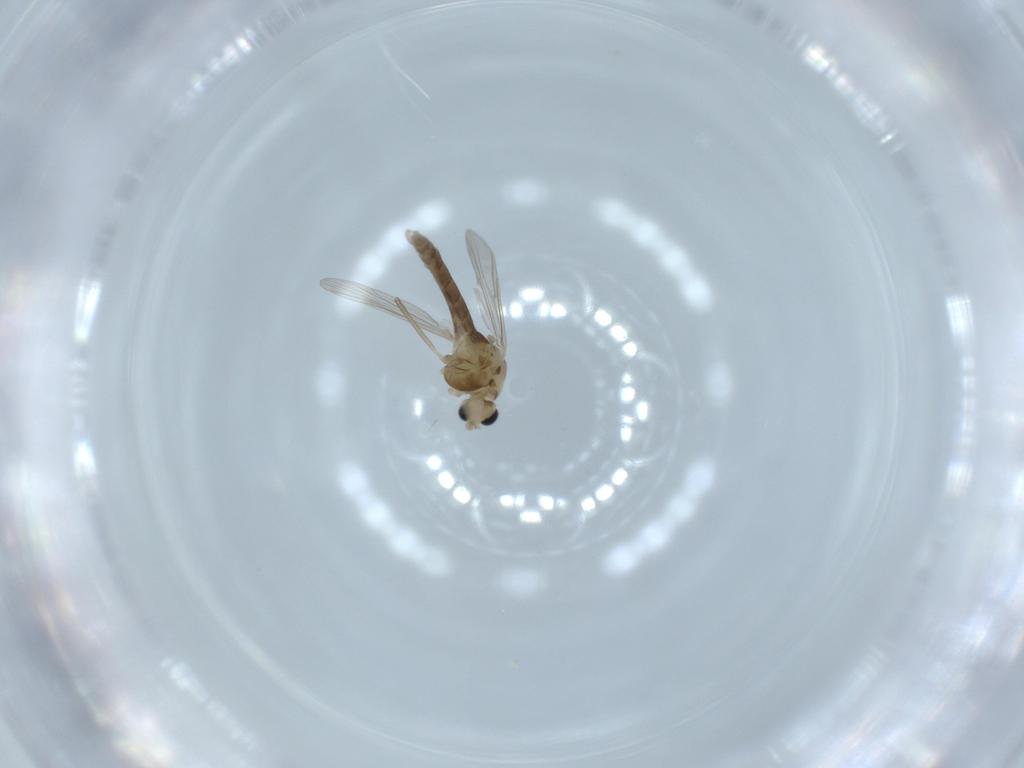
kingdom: Animalia
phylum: Arthropoda
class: Insecta
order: Diptera
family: Chironomidae
